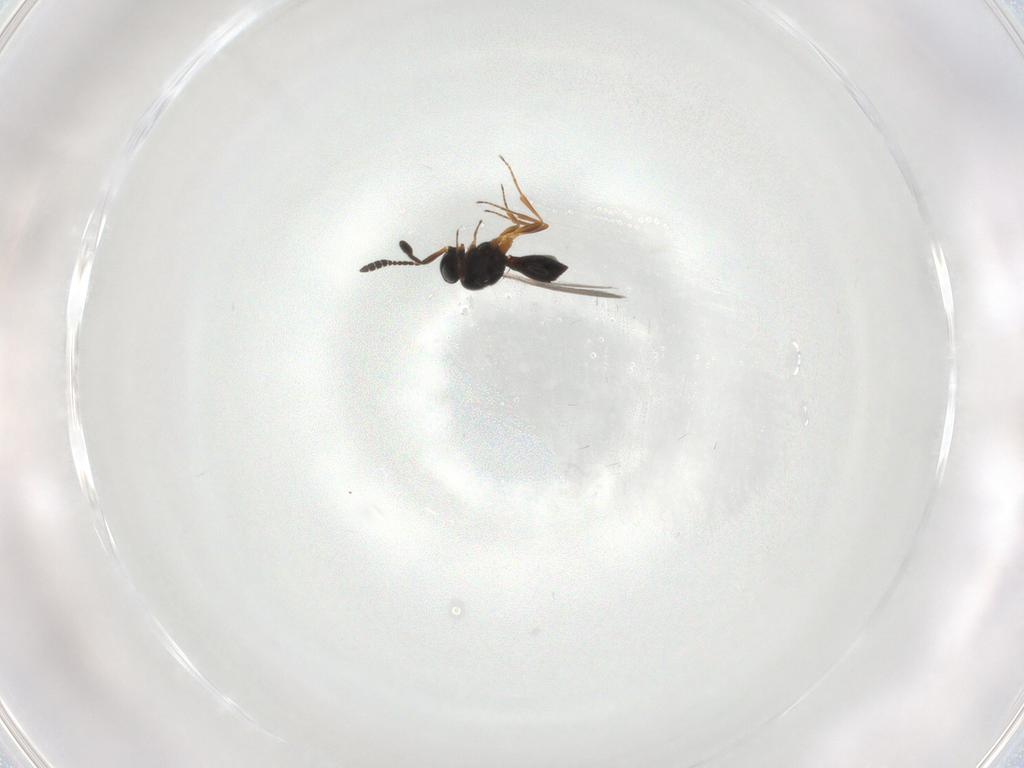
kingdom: Animalia
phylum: Arthropoda
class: Insecta
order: Hymenoptera
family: Scelionidae
